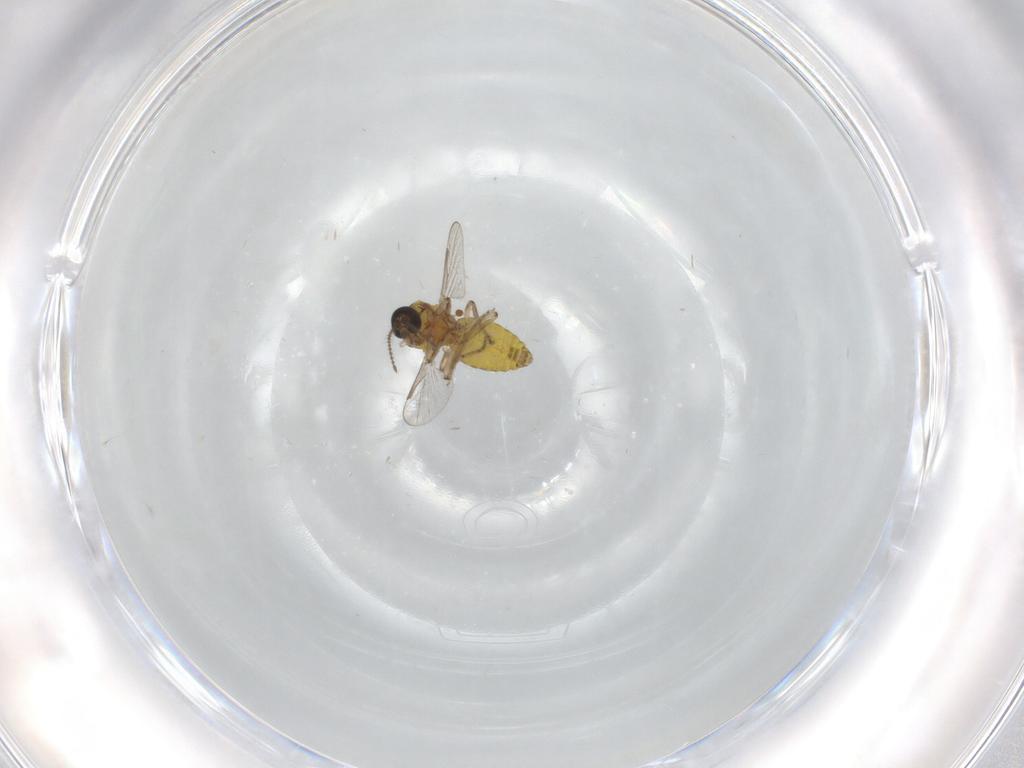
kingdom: Animalia
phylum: Arthropoda
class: Insecta
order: Diptera
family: Ceratopogonidae
